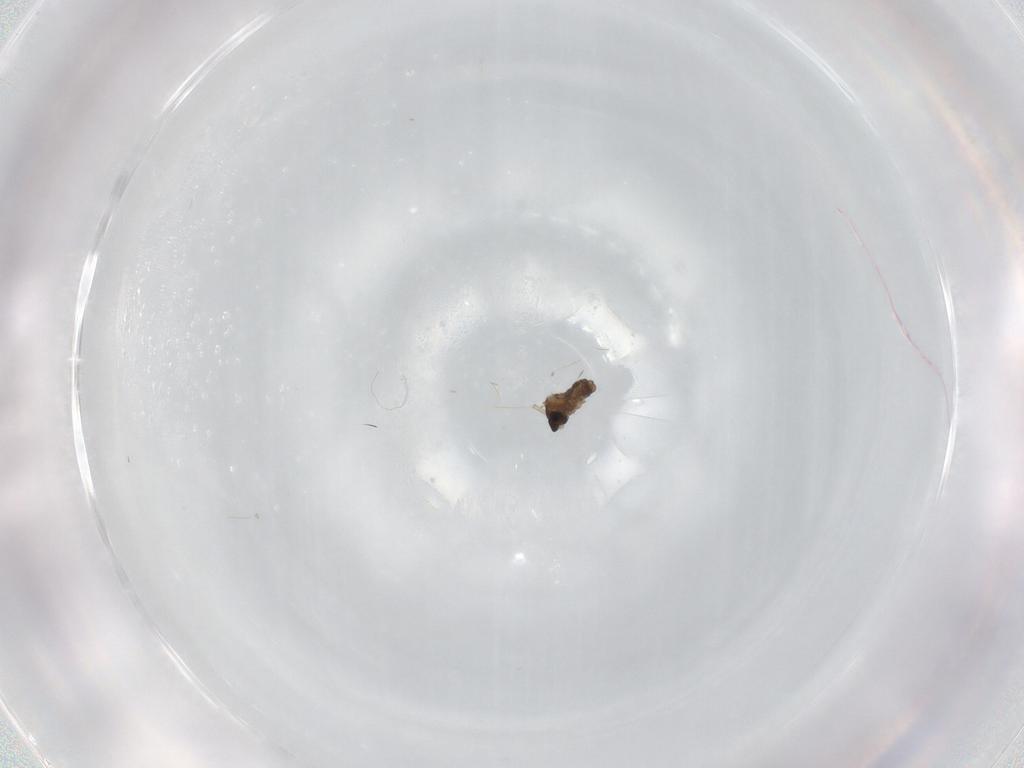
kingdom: Animalia
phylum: Arthropoda
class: Insecta
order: Diptera
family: Cecidomyiidae
